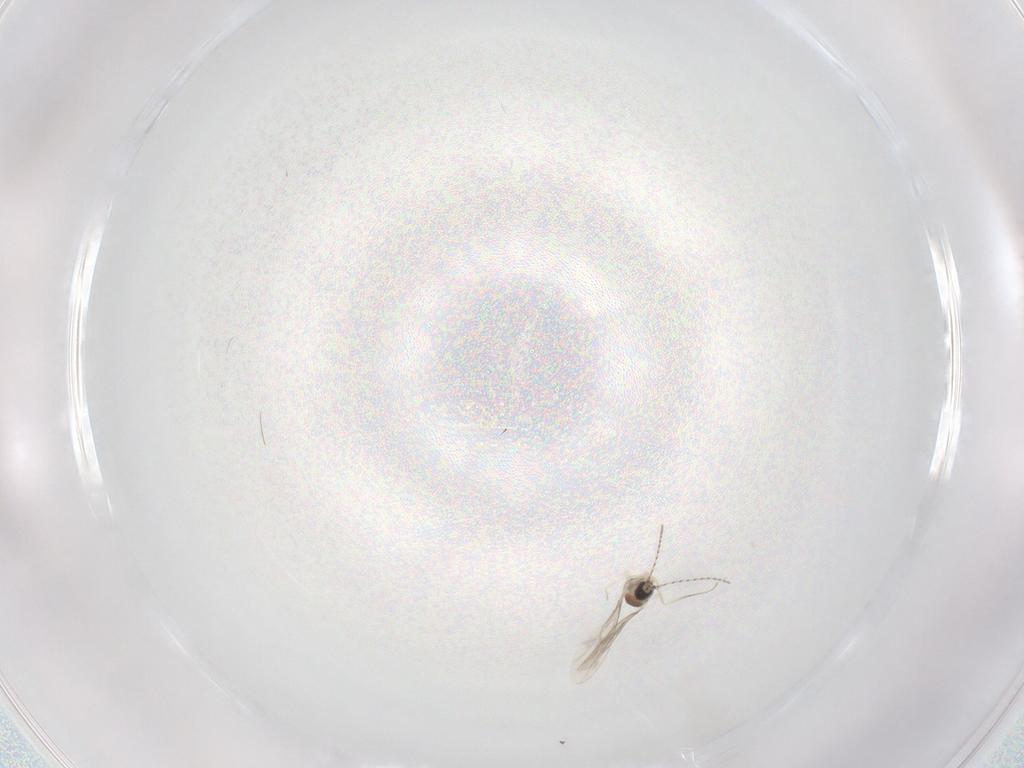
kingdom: Animalia
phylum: Arthropoda
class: Insecta
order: Diptera
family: Cecidomyiidae
